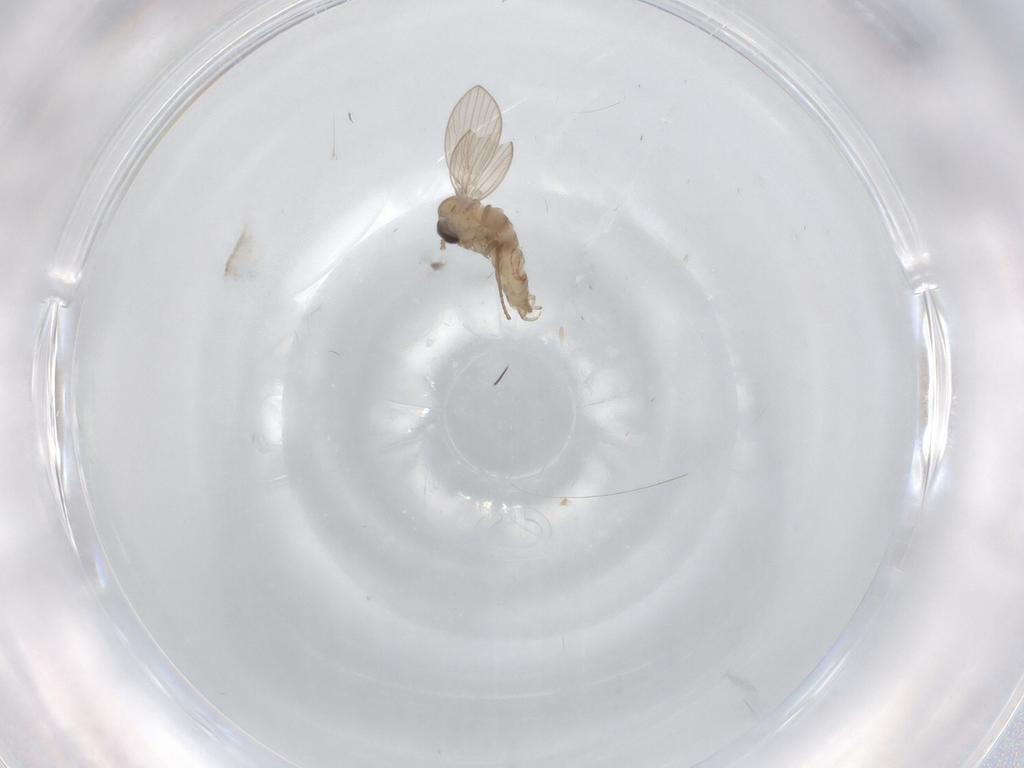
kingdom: Animalia
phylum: Arthropoda
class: Insecta
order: Diptera
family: Psychodidae
